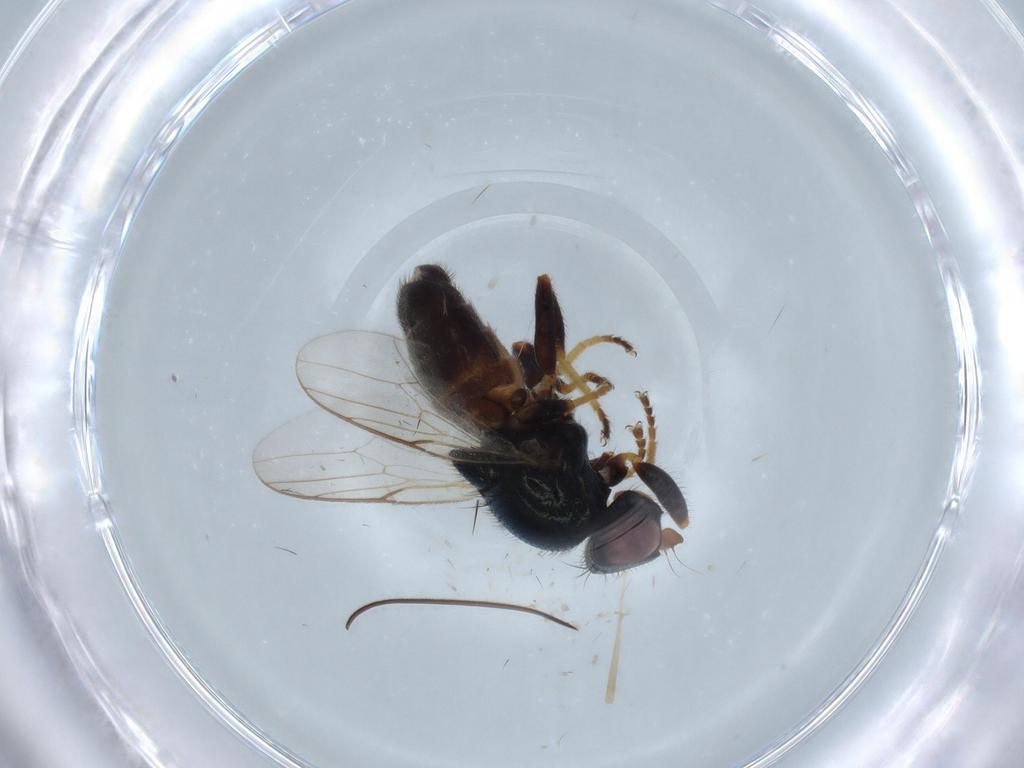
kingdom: Animalia
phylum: Arthropoda
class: Insecta
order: Diptera
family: Chloropidae
